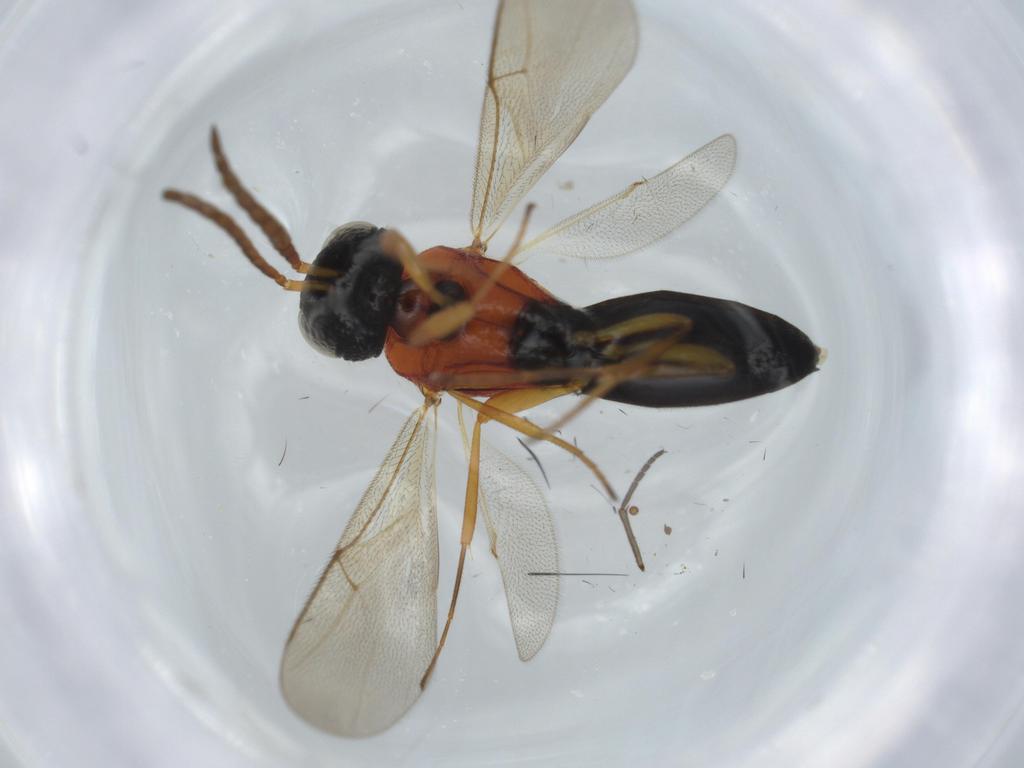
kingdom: Animalia
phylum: Arthropoda
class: Insecta
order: Hymenoptera
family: Scelionidae
